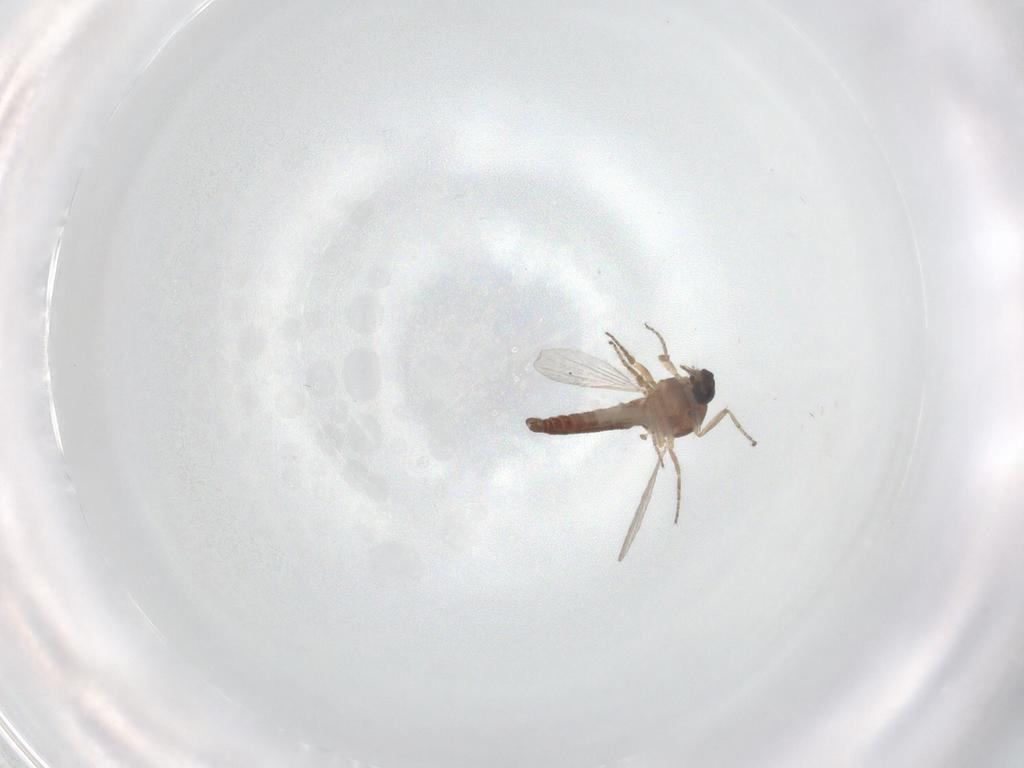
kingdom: Animalia
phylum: Arthropoda
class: Insecta
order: Diptera
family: Ceratopogonidae
